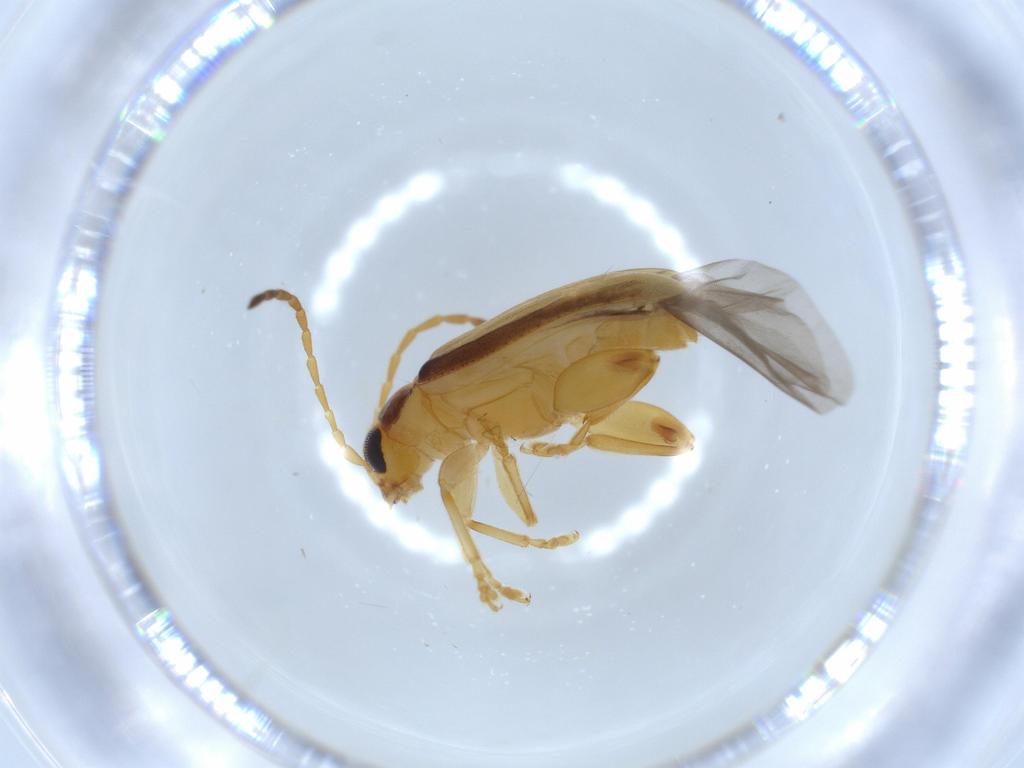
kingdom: Animalia
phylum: Arthropoda
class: Insecta
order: Coleoptera
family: Chrysomelidae
